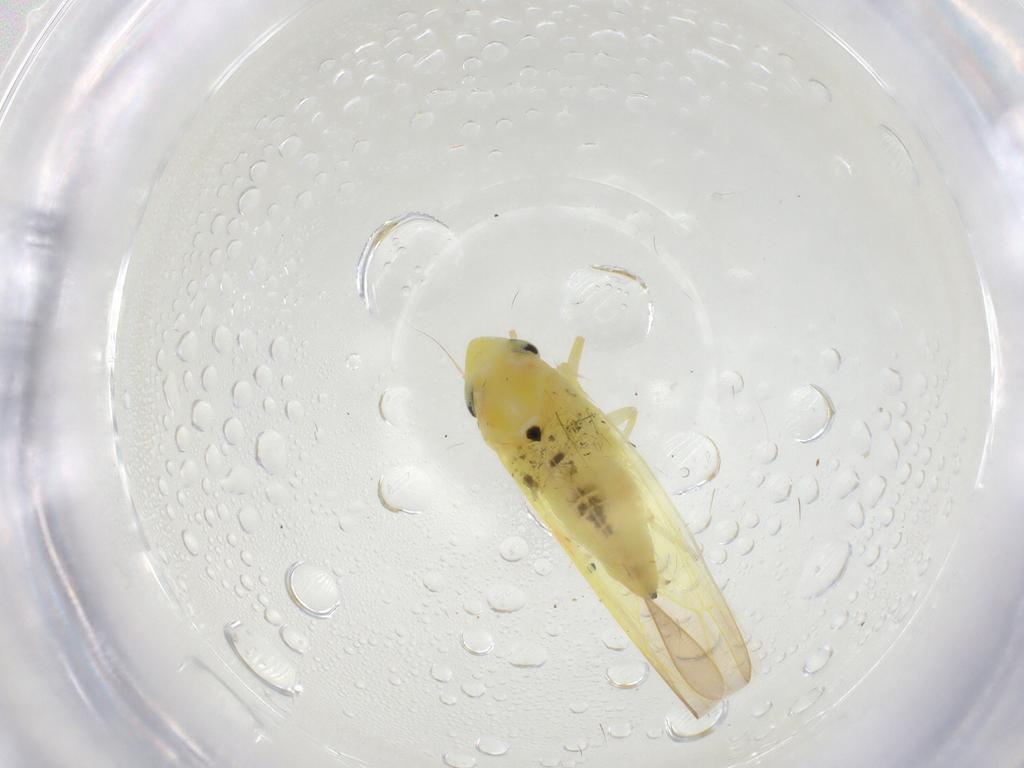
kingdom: Animalia
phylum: Arthropoda
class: Insecta
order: Hemiptera
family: Cicadellidae
